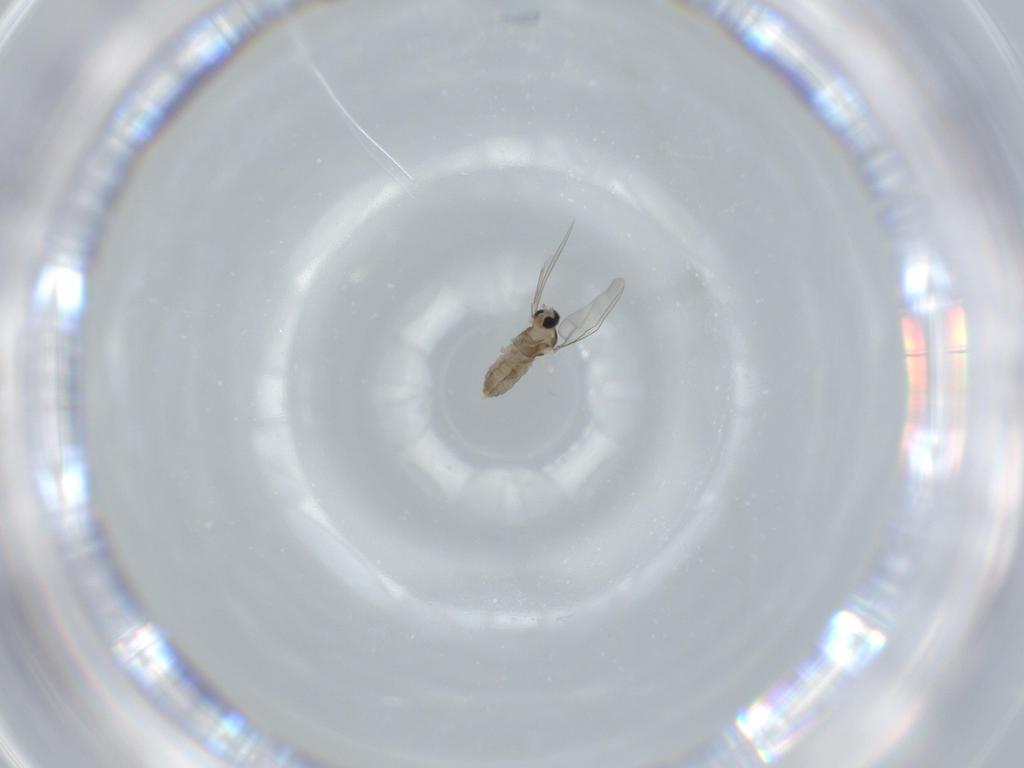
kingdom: Animalia
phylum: Arthropoda
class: Insecta
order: Diptera
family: Cecidomyiidae
